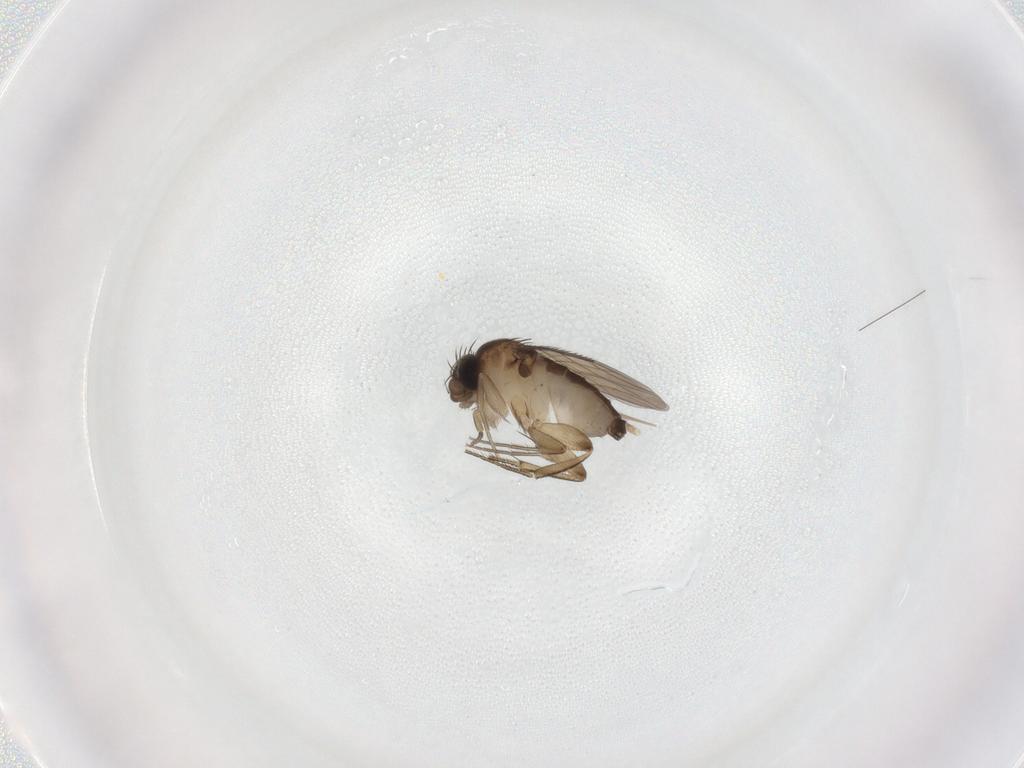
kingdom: Animalia
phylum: Arthropoda
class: Insecta
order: Diptera
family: Phoridae
